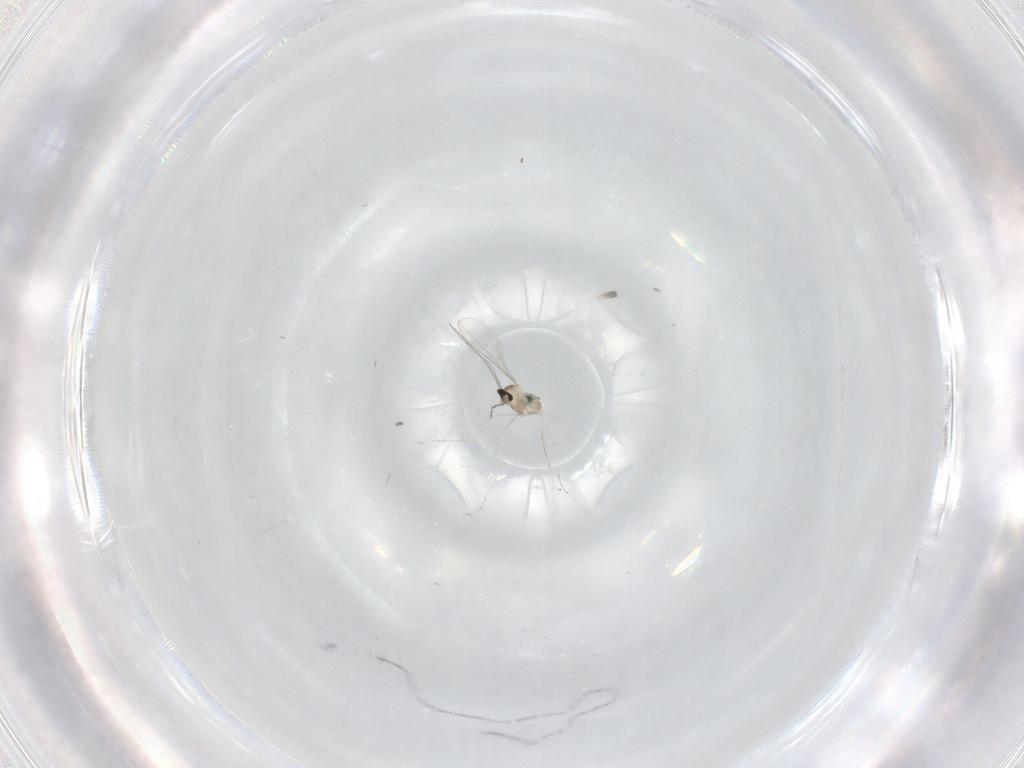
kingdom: Animalia
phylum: Arthropoda
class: Insecta
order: Diptera
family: Cecidomyiidae
